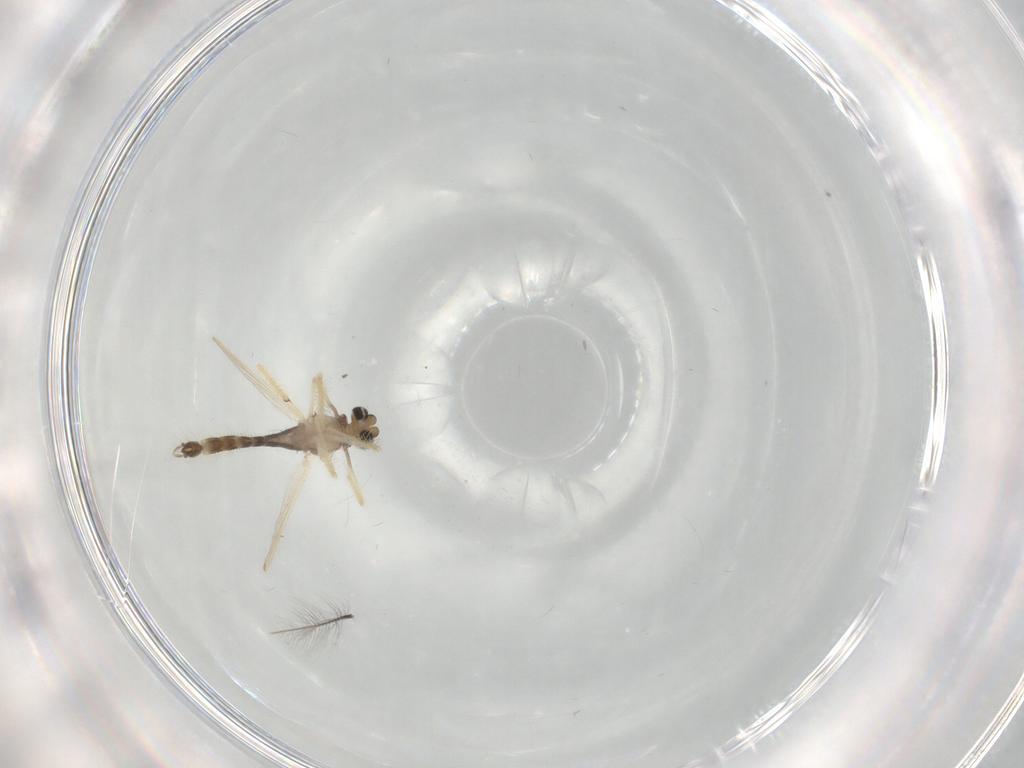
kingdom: Animalia
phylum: Arthropoda
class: Insecta
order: Diptera
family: Chironomidae
